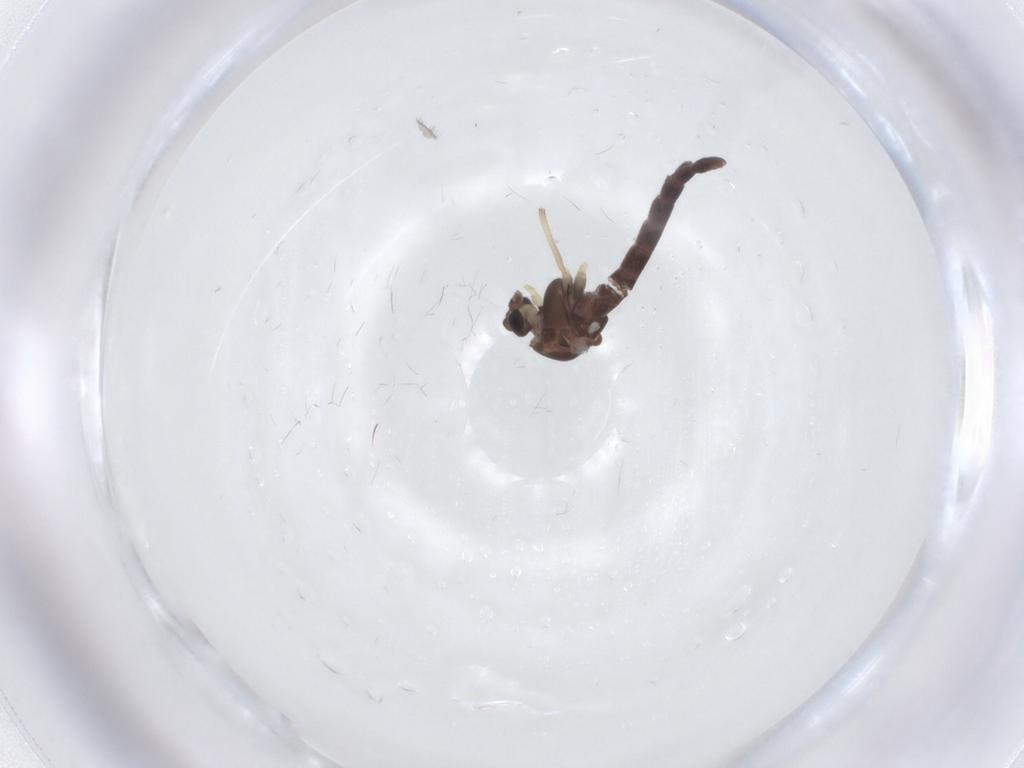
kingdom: Animalia
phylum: Arthropoda
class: Insecta
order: Diptera
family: Chironomidae
